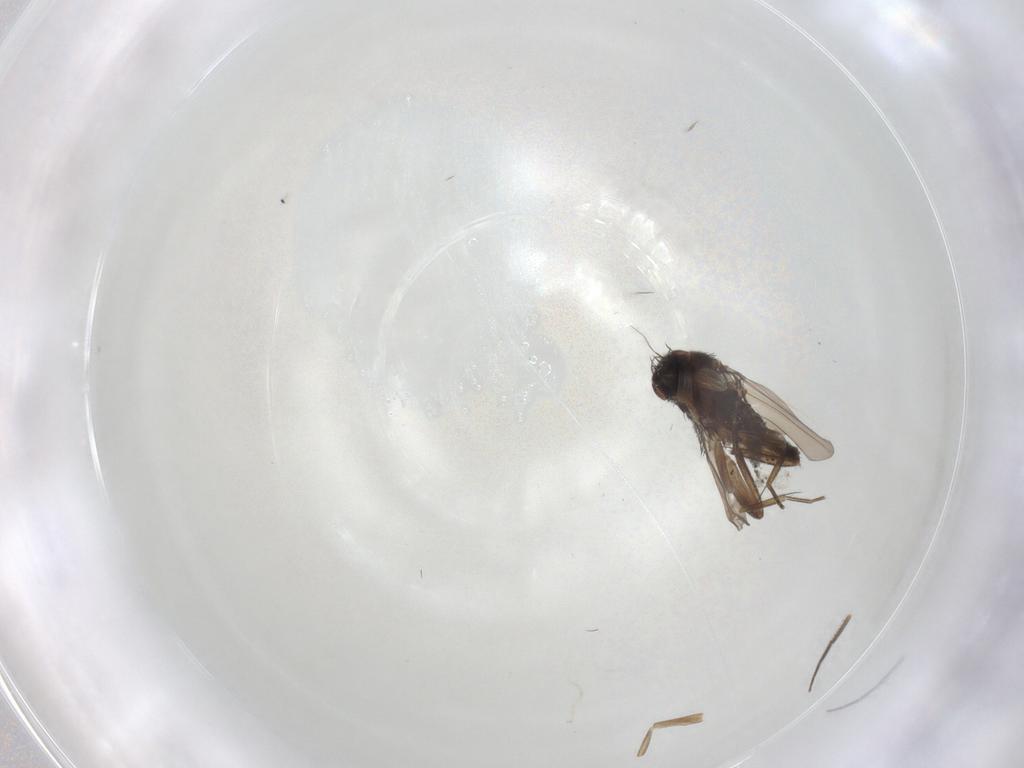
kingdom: Animalia
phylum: Arthropoda
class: Insecta
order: Diptera
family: Phoridae
